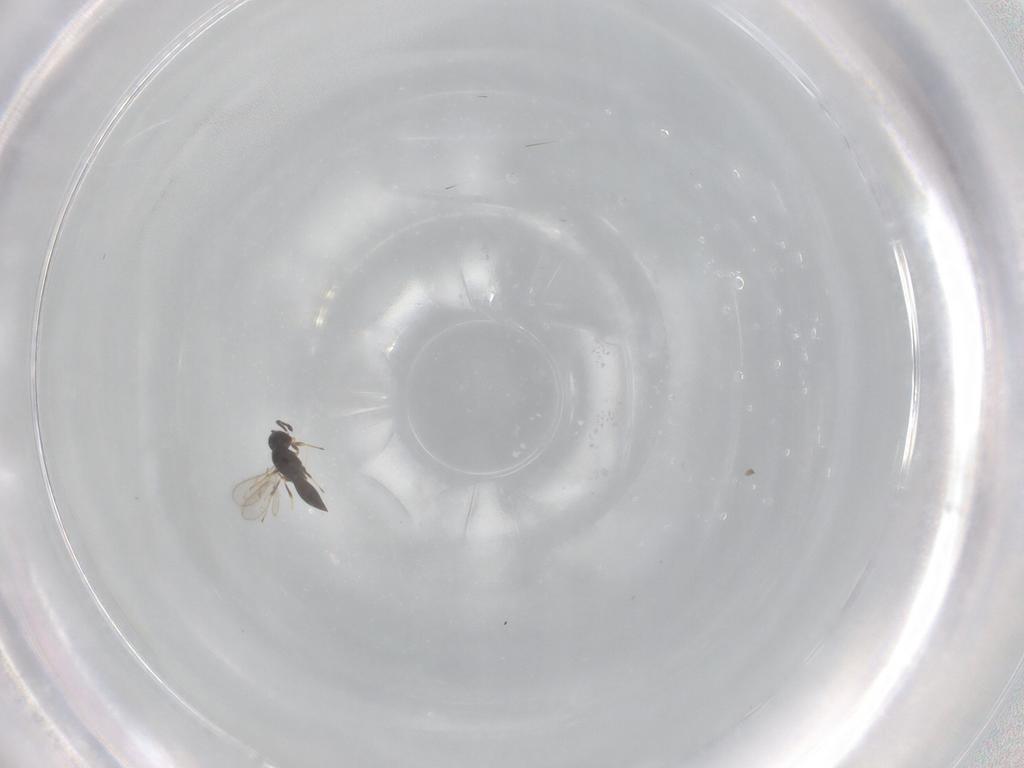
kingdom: Animalia
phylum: Arthropoda
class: Insecta
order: Hymenoptera
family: Scelionidae
